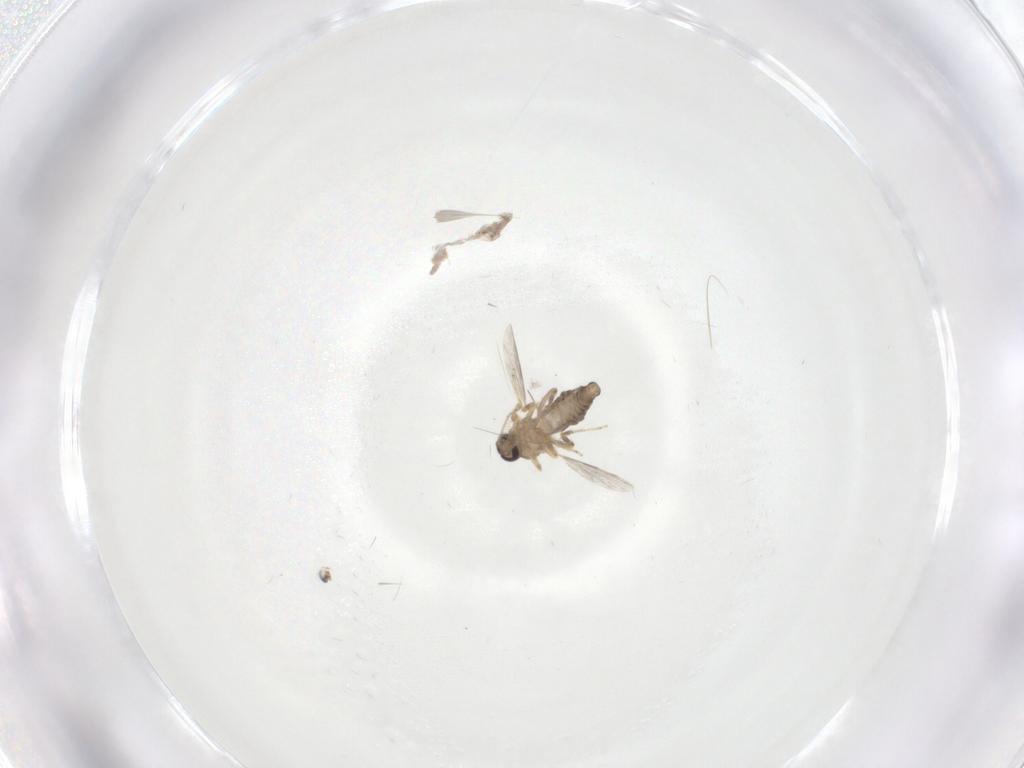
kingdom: Animalia
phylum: Arthropoda
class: Insecta
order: Diptera
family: Ceratopogonidae
